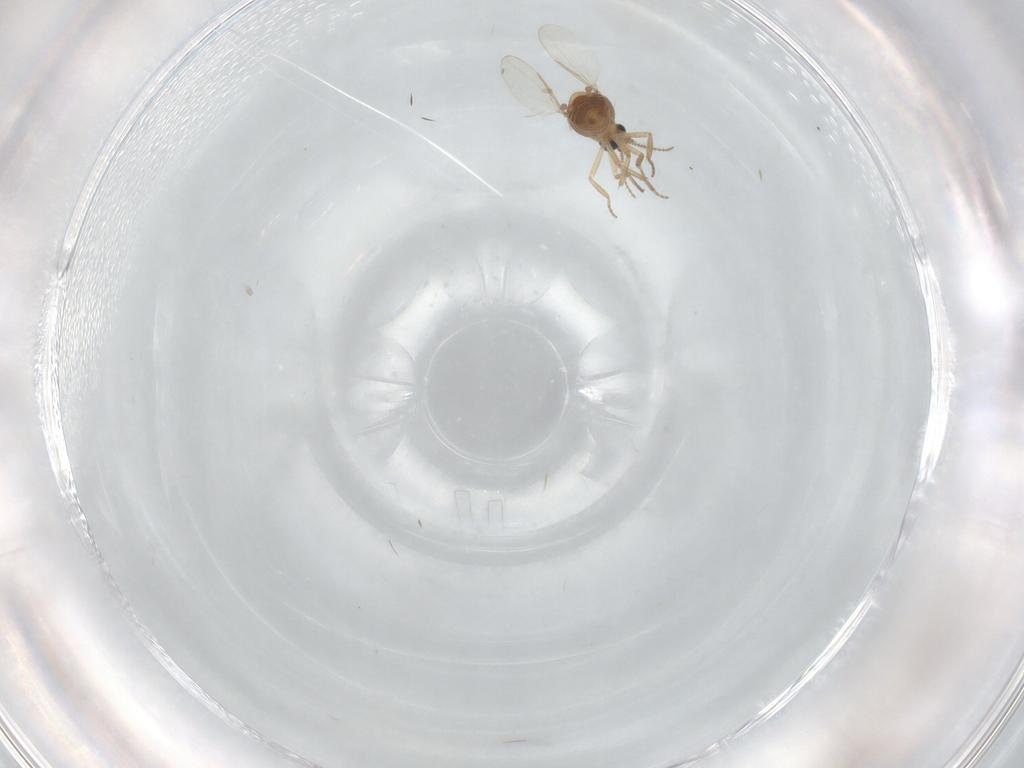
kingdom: Animalia
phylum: Arthropoda
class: Insecta
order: Diptera
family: Ceratopogonidae
